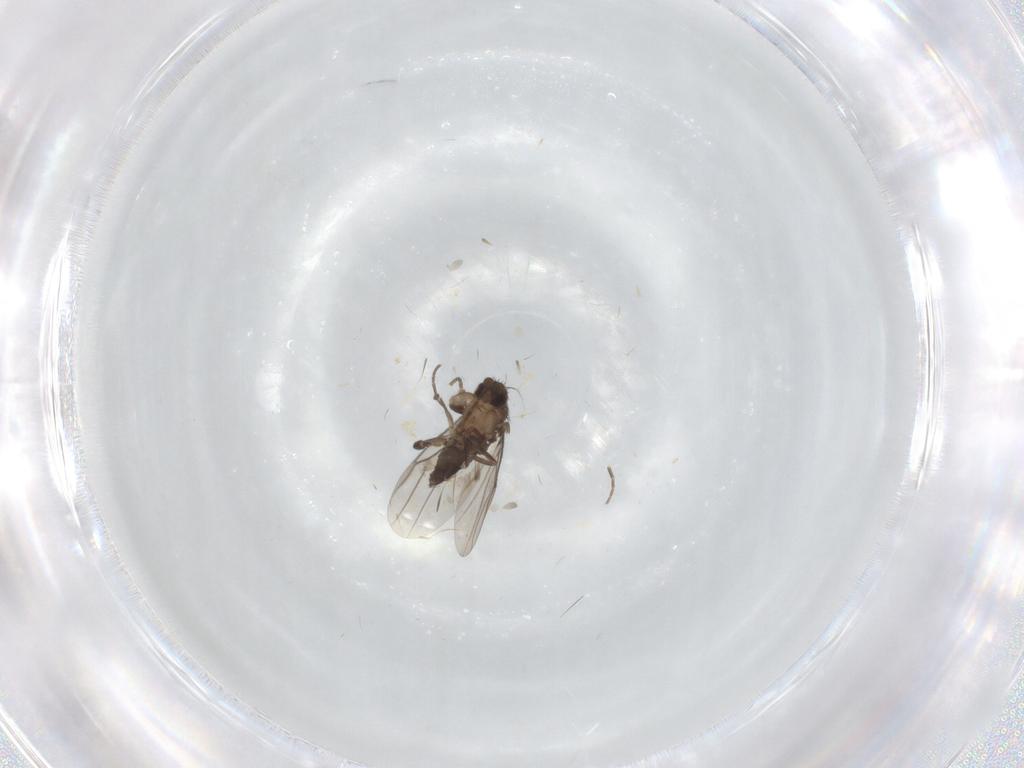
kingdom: Animalia
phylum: Arthropoda
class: Insecta
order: Diptera
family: Phoridae
